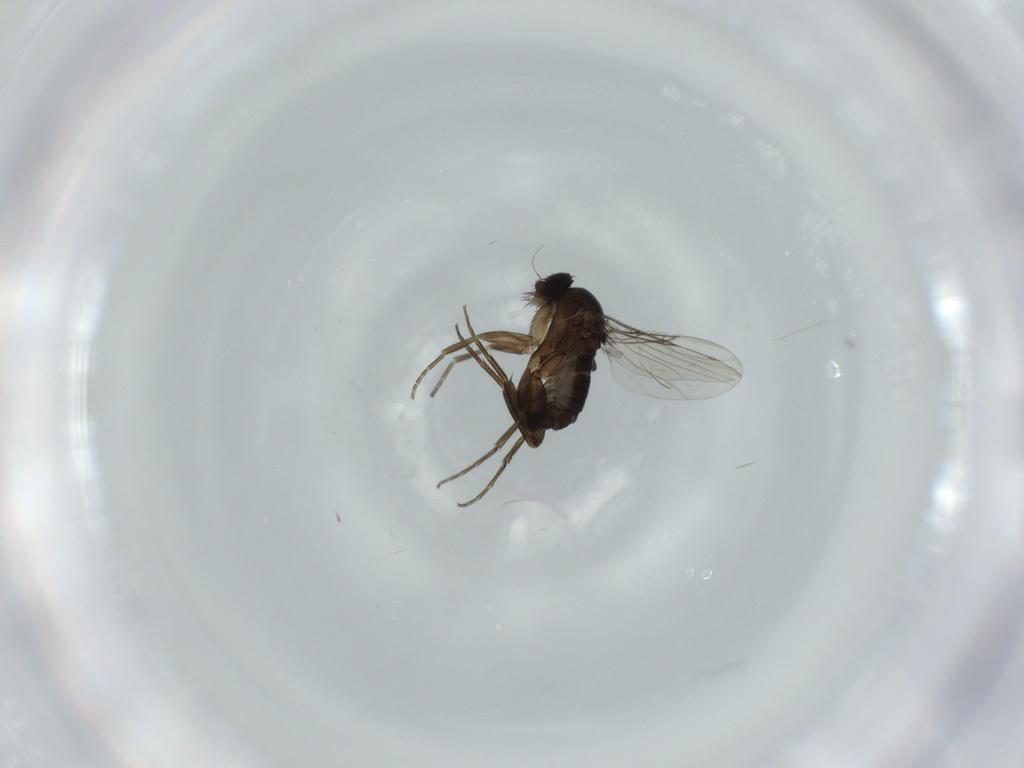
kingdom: Animalia
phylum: Arthropoda
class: Insecta
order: Diptera
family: Phoridae
